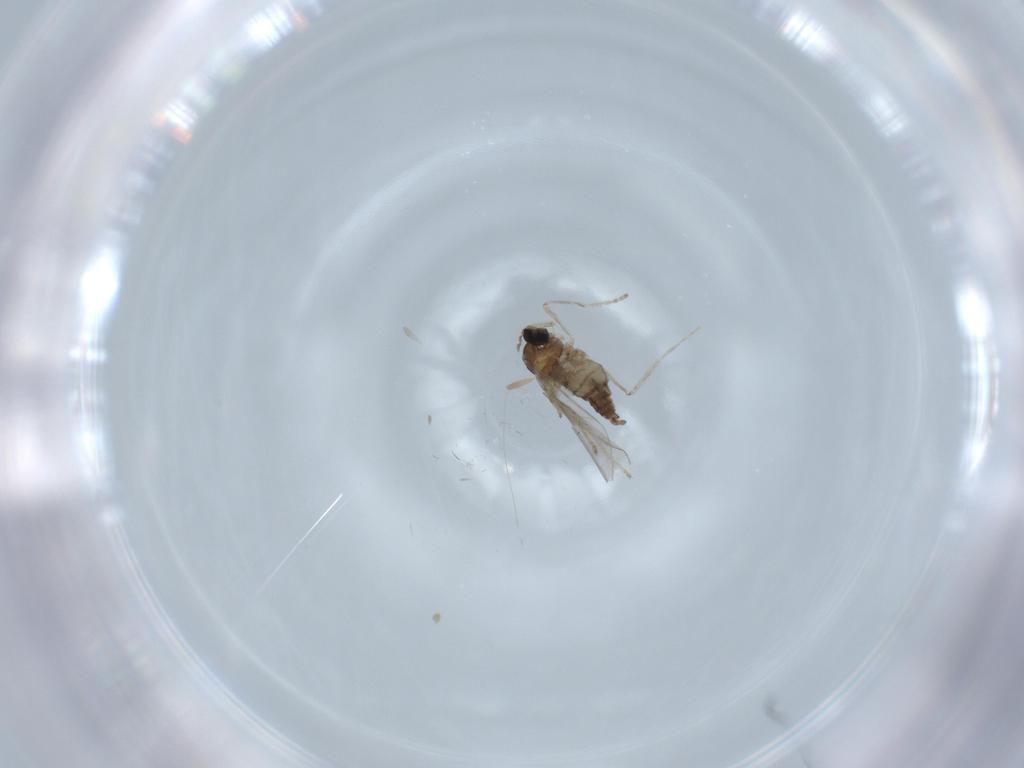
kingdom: Animalia
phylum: Arthropoda
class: Insecta
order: Diptera
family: Cecidomyiidae
